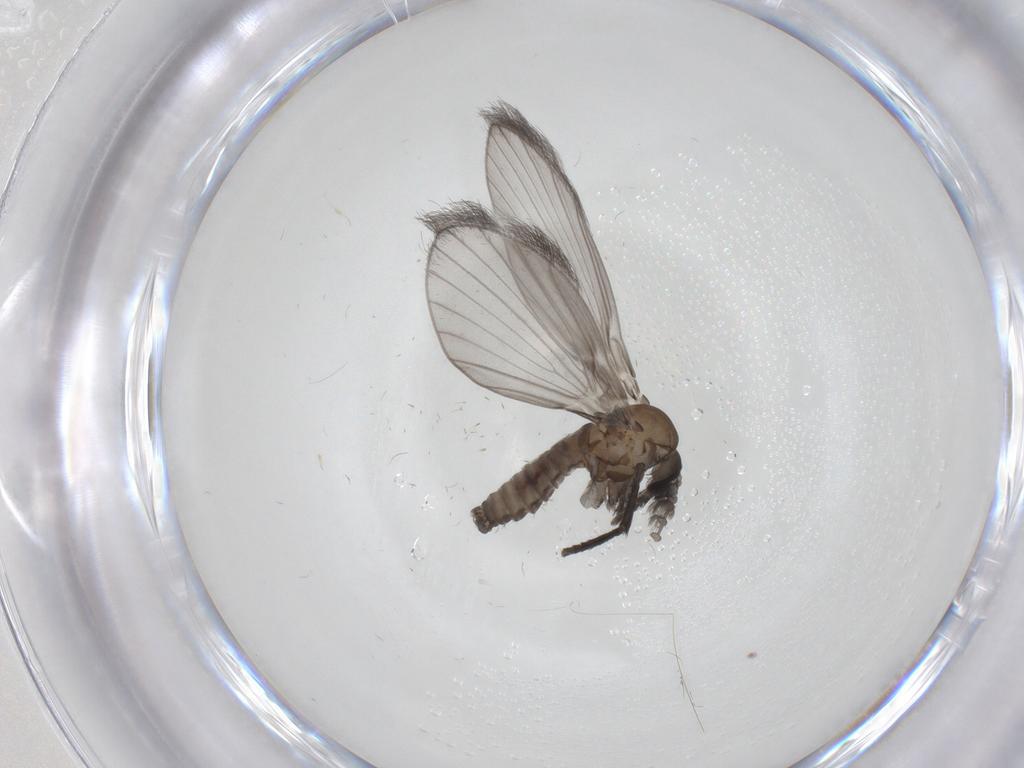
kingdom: Animalia
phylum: Arthropoda
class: Insecta
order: Diptera
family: Psychodidae
